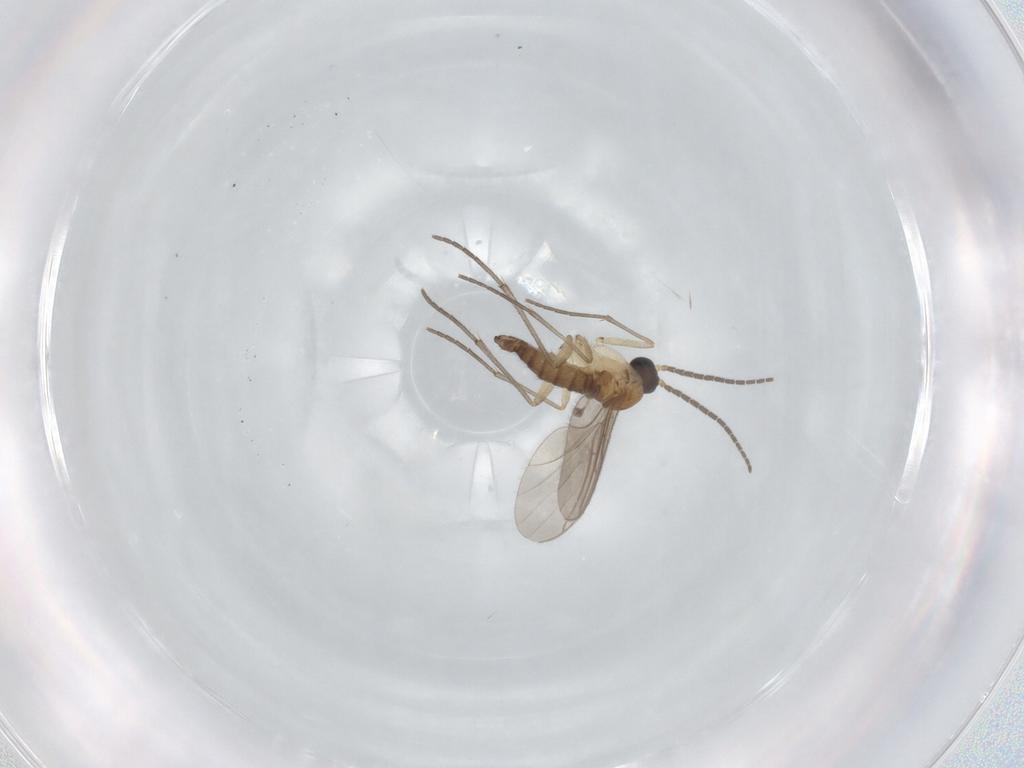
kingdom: Animalia
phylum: Arthropoda
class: Insecta
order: Diptera
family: Sciaridae
